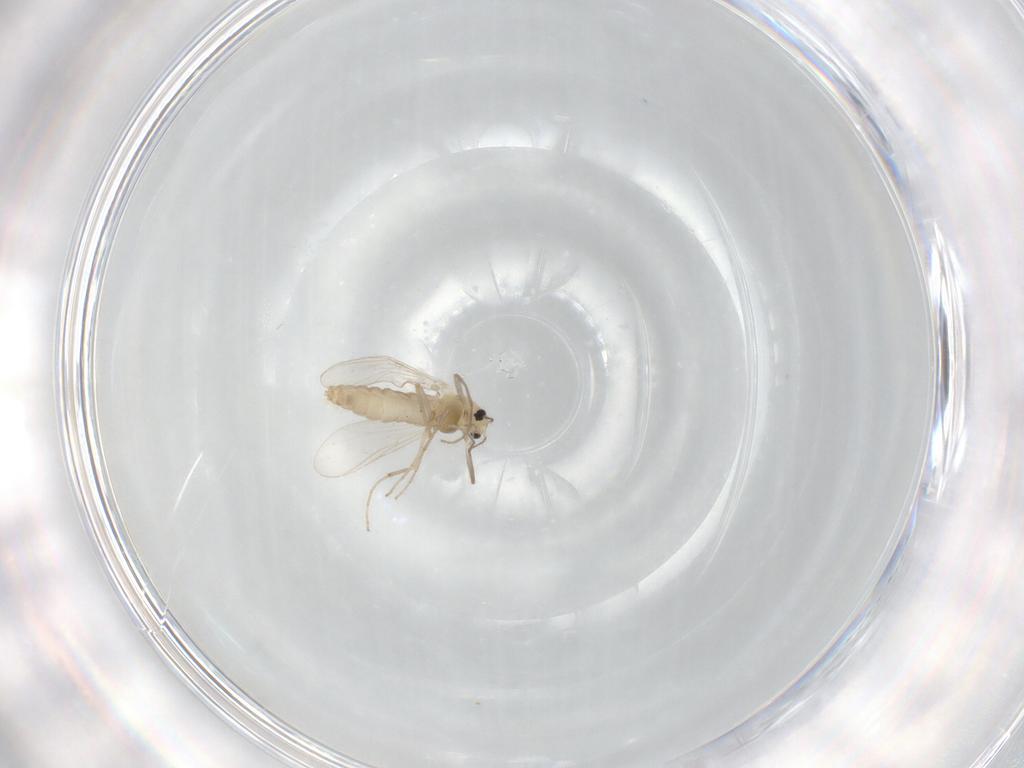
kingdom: Animalia
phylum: Arthropoda
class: Insecta
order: Diptera
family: Chironomidae
